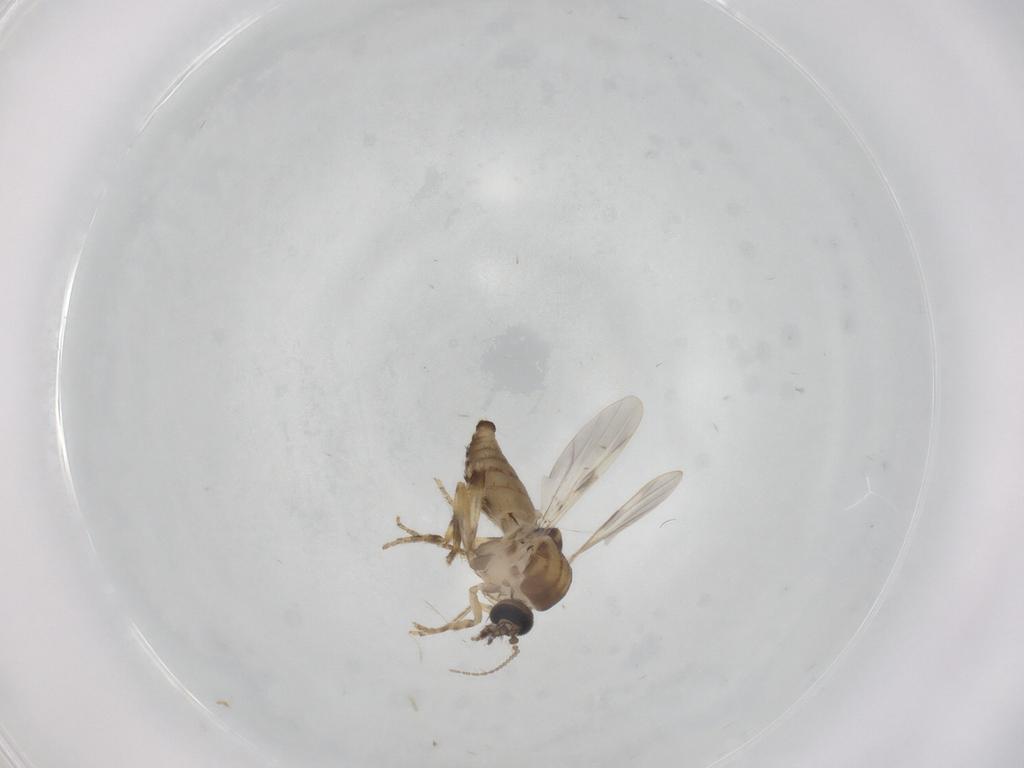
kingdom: Animalia
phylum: Arthropoda
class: Insecta
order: Diptera
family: Ceratopogonidae
